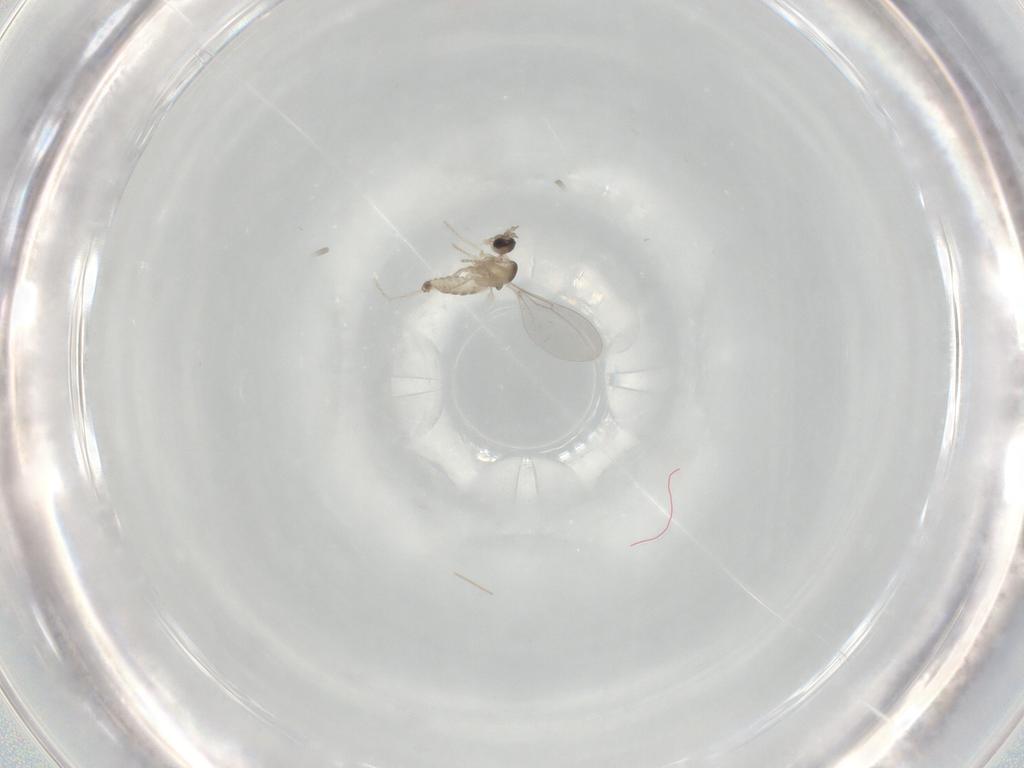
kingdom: Animalia
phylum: Arthropoda
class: Insecta
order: Diptera
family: Cecidomyiidae
